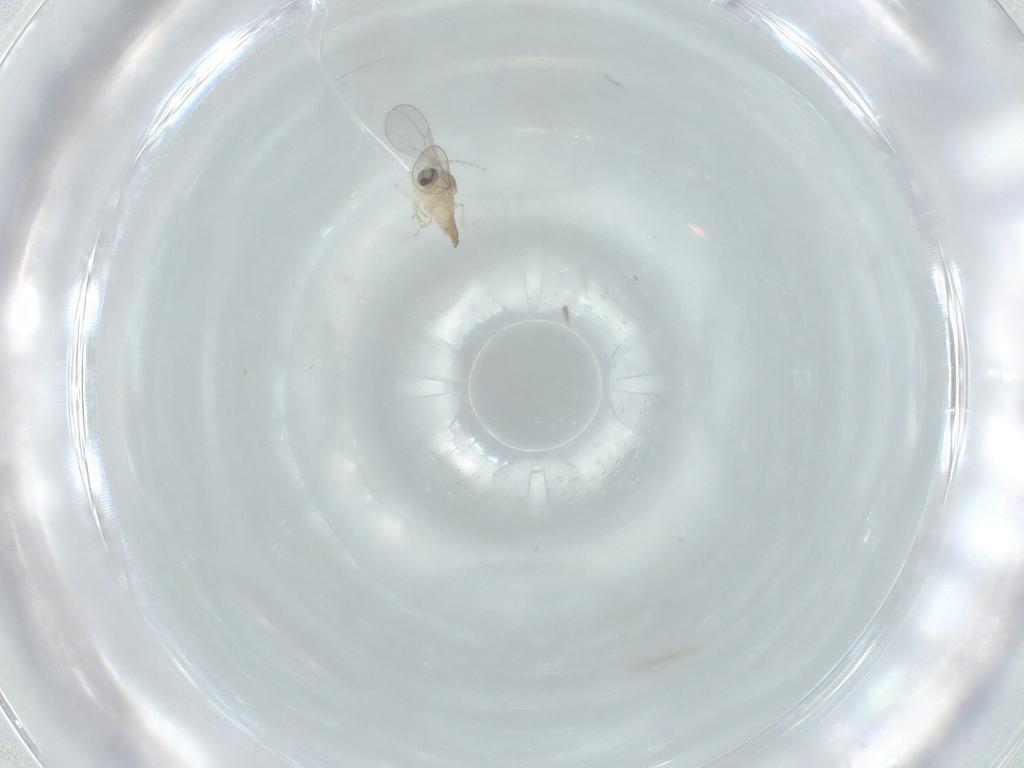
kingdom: Animalia
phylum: Arthropoda
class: Insecta
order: Diptera
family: Cecidomyiidae
